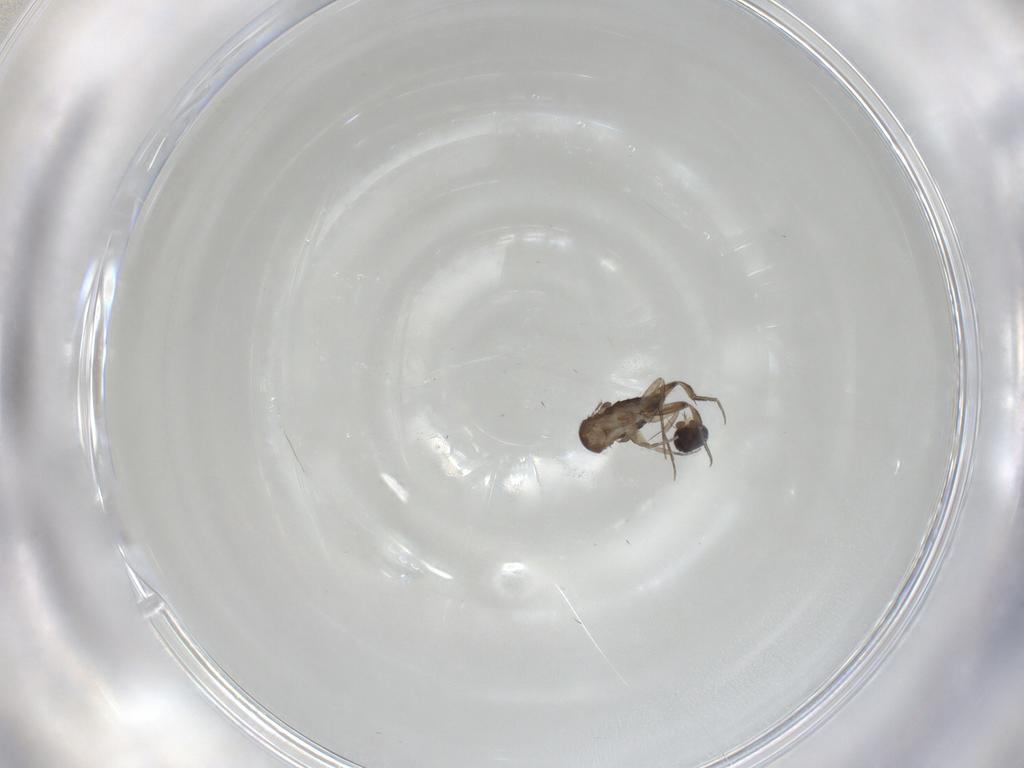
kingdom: Animalia
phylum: Arthropoda
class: Insecta
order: Diptera
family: Phoridae
